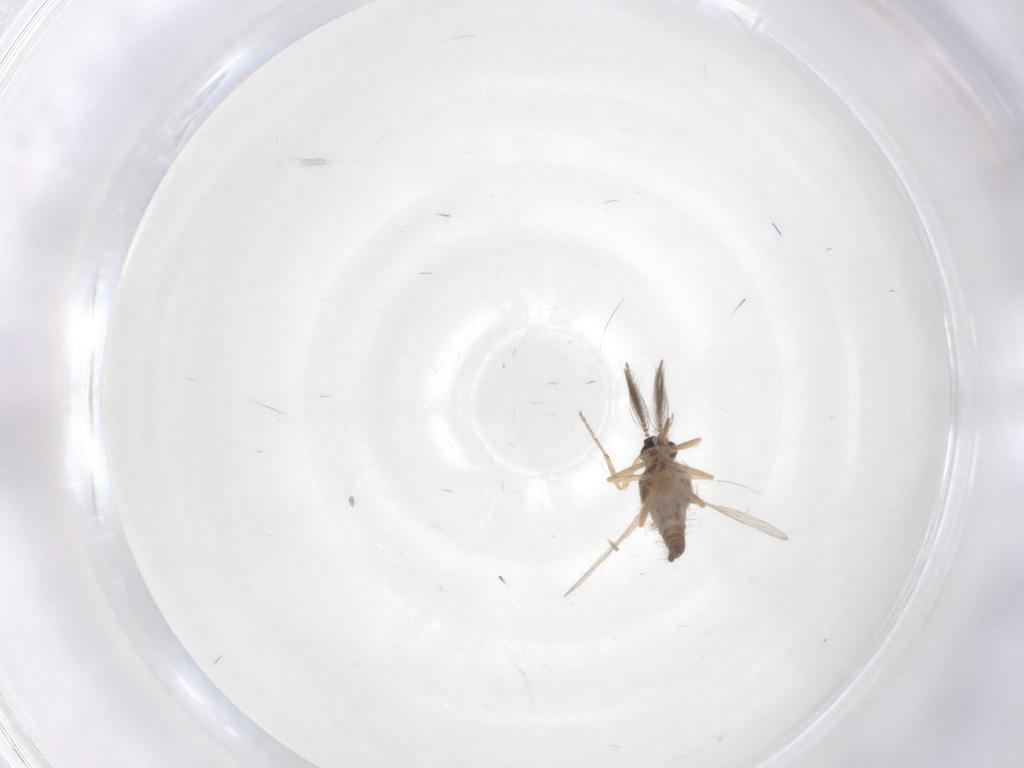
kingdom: Animalia
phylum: Arthropoda
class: Insecta
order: Diptera
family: Ceratopogonidae
